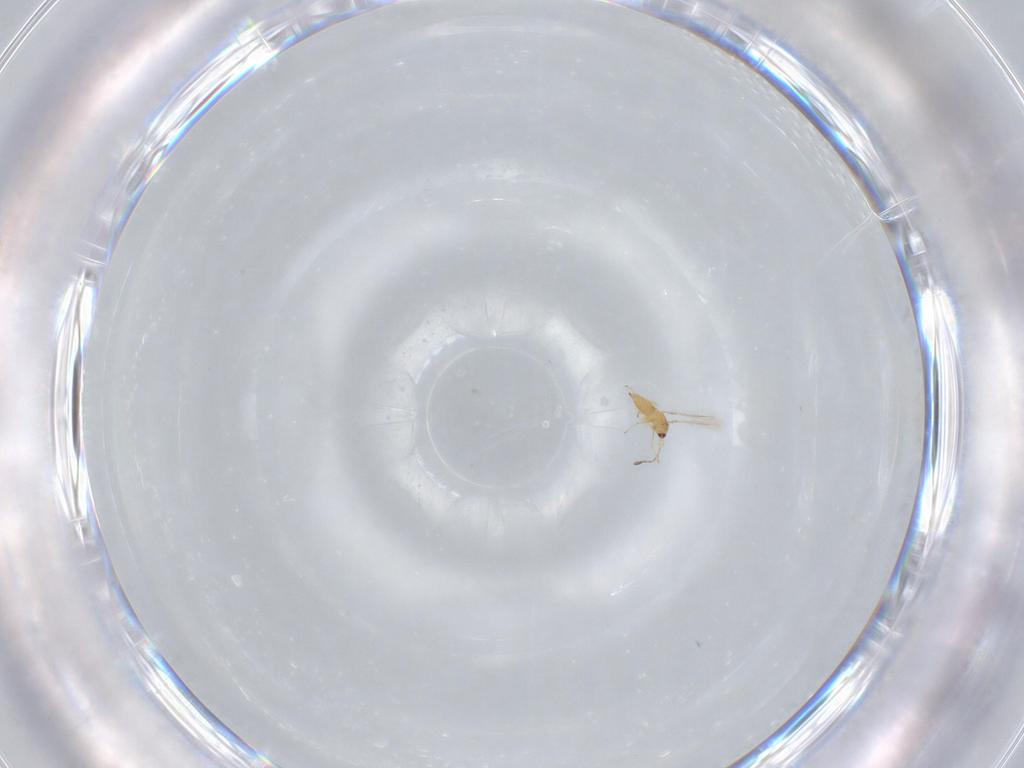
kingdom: Animalia
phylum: Arthropoda
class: Insecta
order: Hymenoptera
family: Mymaridae
